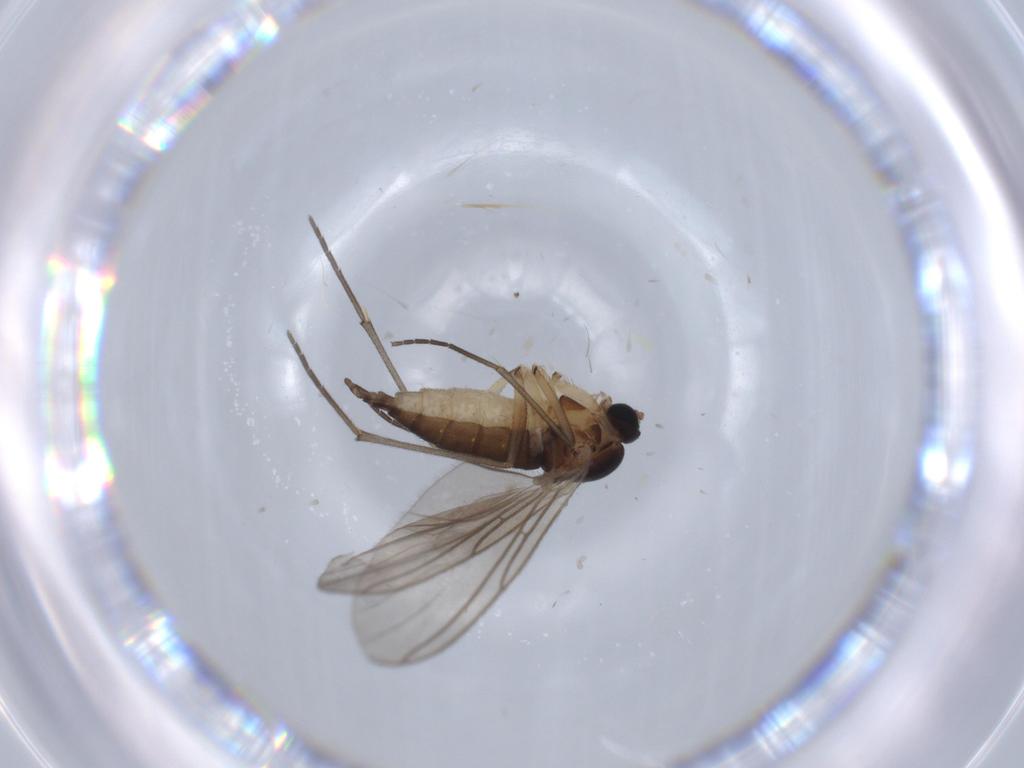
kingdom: Animalia
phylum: Arthropoda
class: Insecta
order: Diptera
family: Sciaridae
